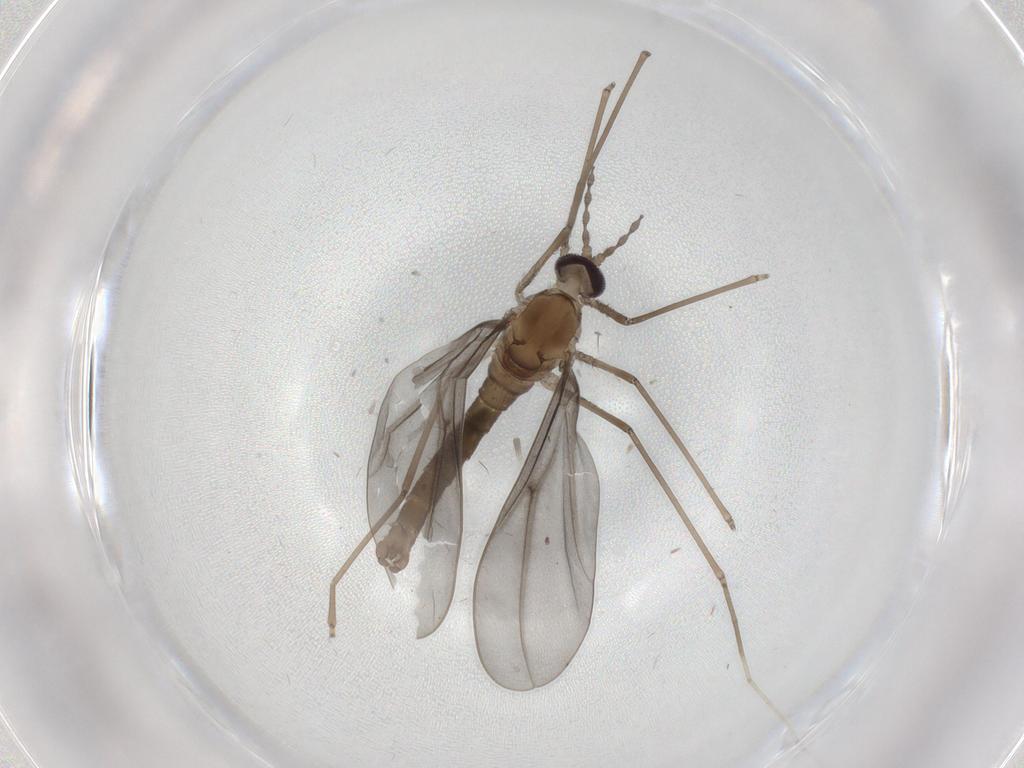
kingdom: Animalia
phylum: Arthropoda
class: Insecta
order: Diptera
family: Cecidomyiidae
